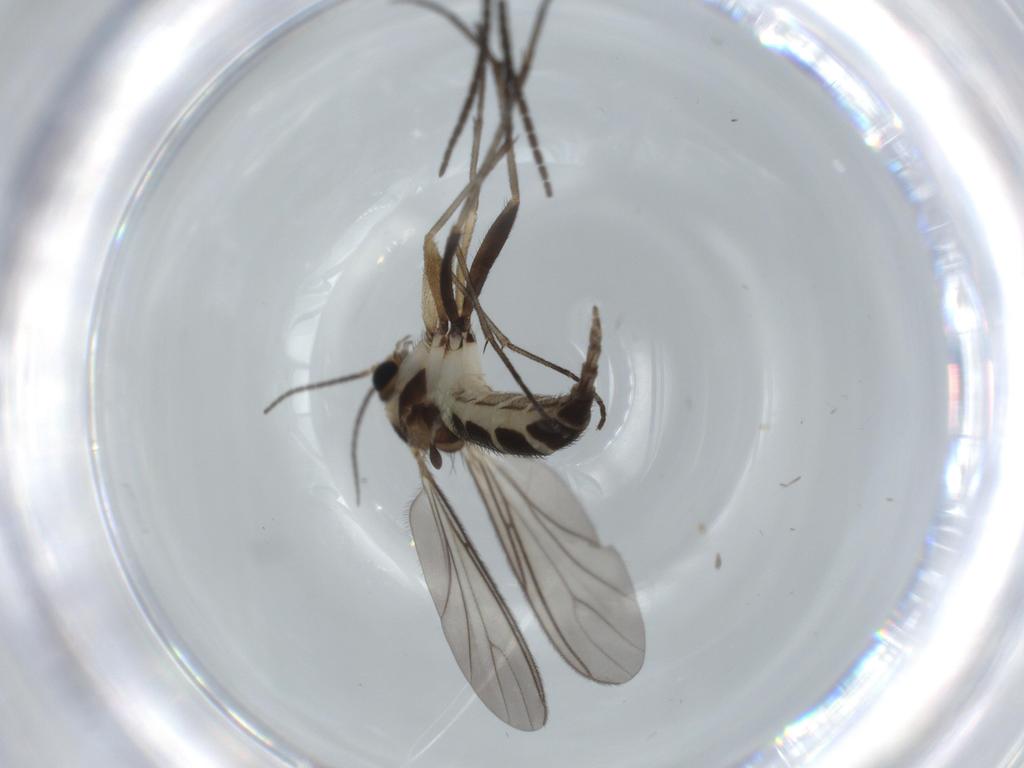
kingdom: Animalia
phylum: Arthropoda
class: Insecta
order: Diptera
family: Sciaridae
